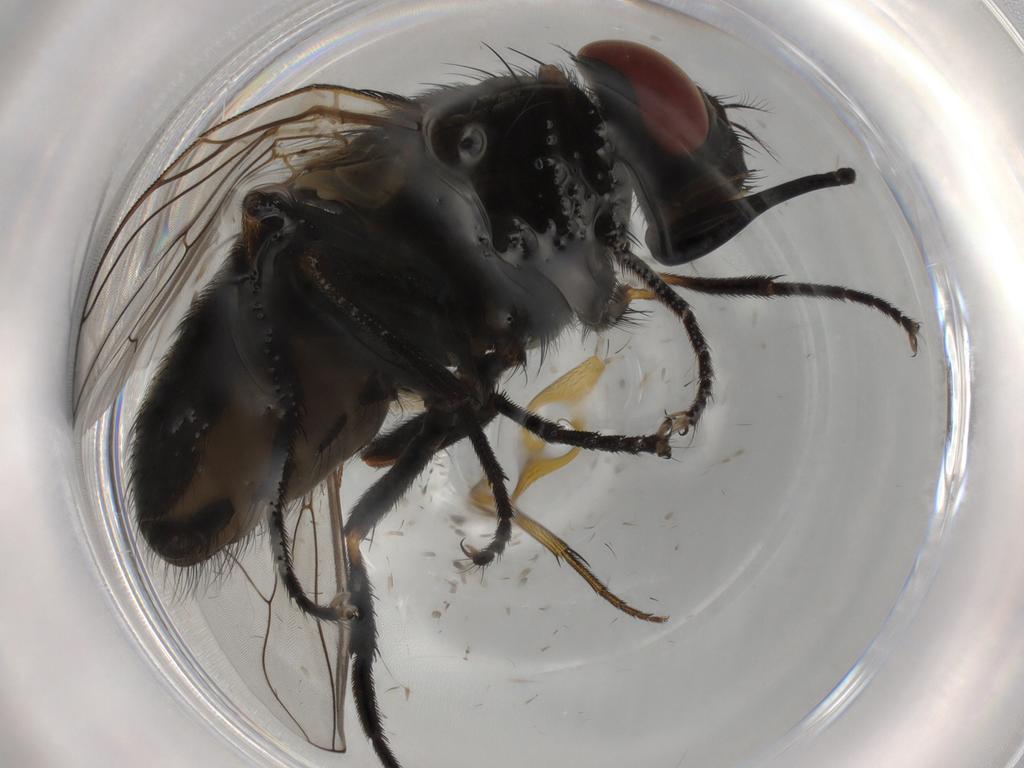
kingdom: Animalia
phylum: Arthropoda
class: Insecta
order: Diptera
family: Muscidae
